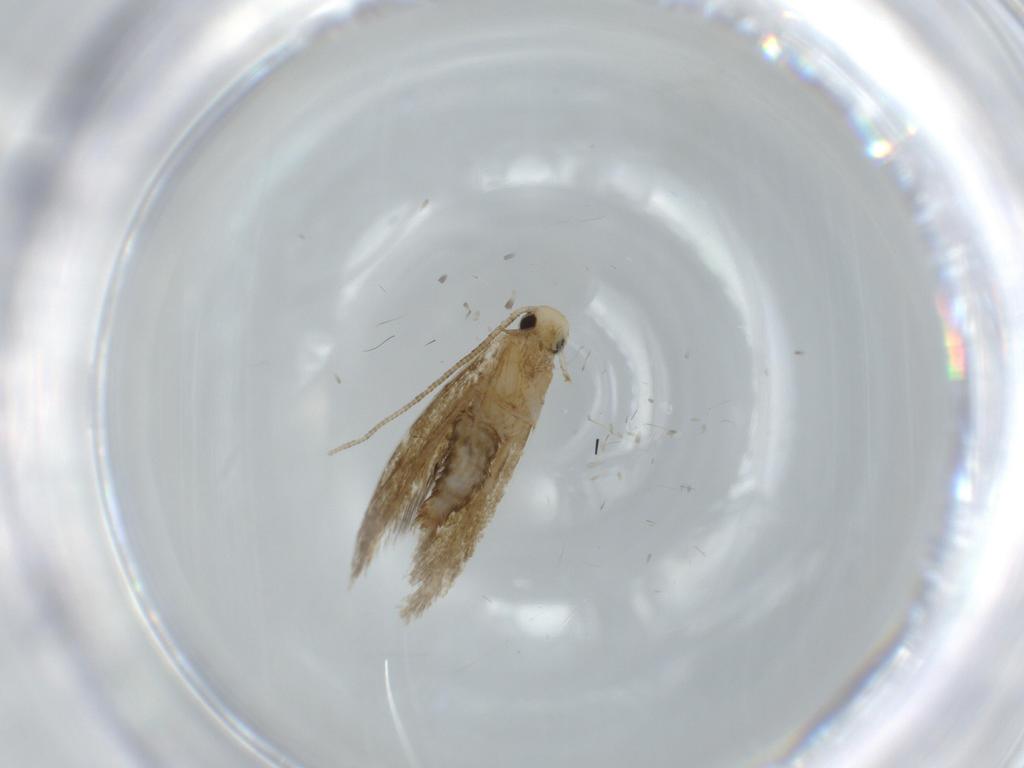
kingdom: Animalia
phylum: Arthropoda
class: Insecta
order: Lepidoptera
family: Tineidae
